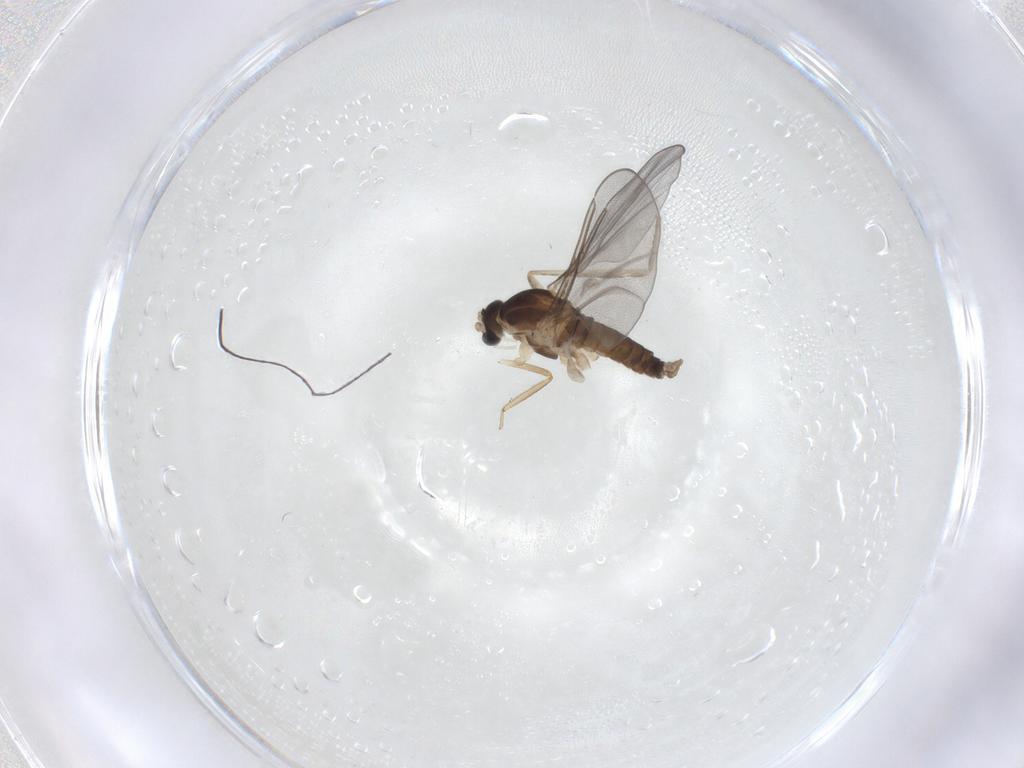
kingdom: Animalia
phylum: Arthropoda
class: Insecta
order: Diptera
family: Cecidomyiidae
